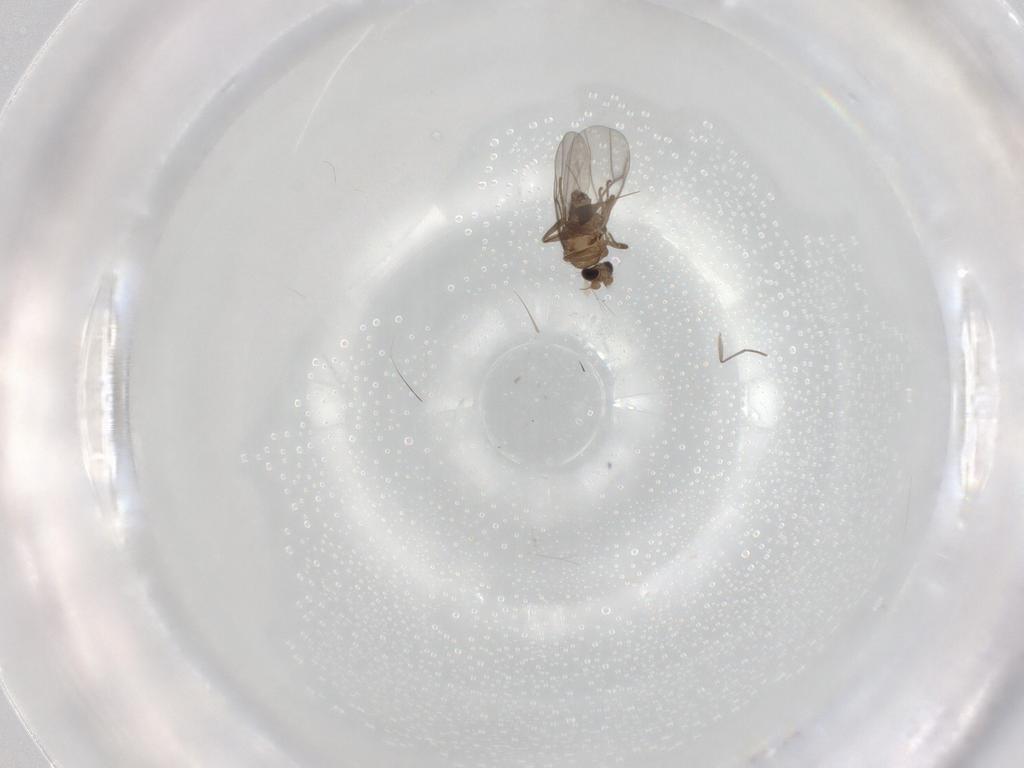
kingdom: Animalia
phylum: Arthropoda
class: Insecta
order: Diptera
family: Sciaridae
